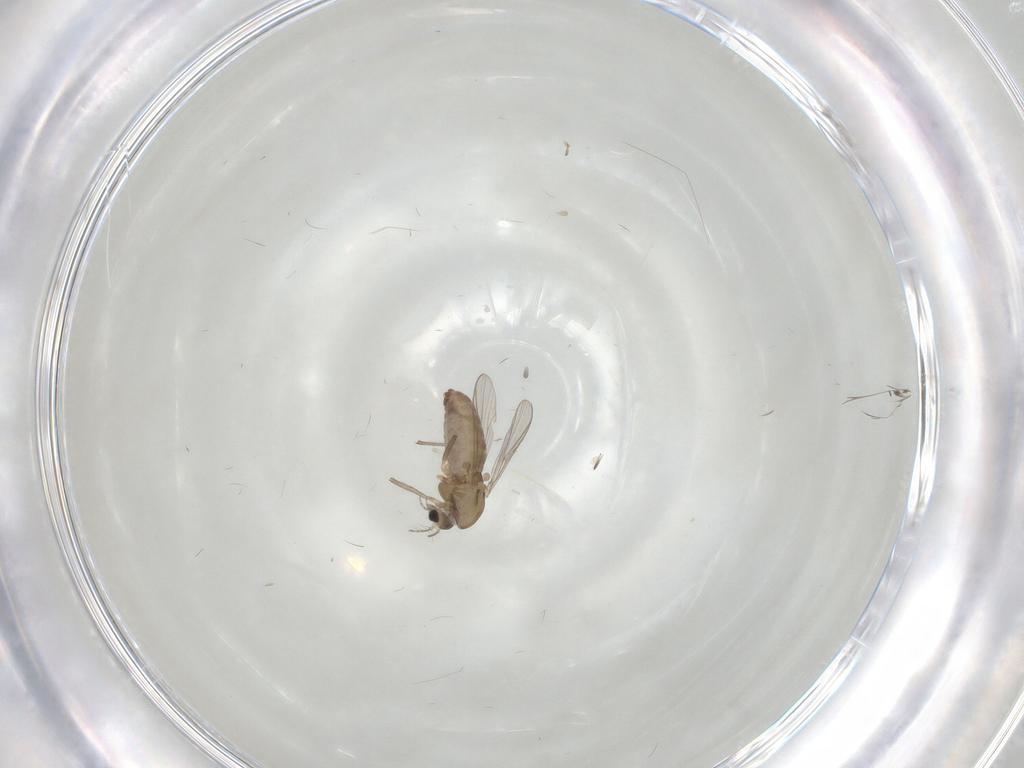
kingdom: Animalia
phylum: Arthropoda
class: Insecta
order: Diptera
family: Chironomidae
